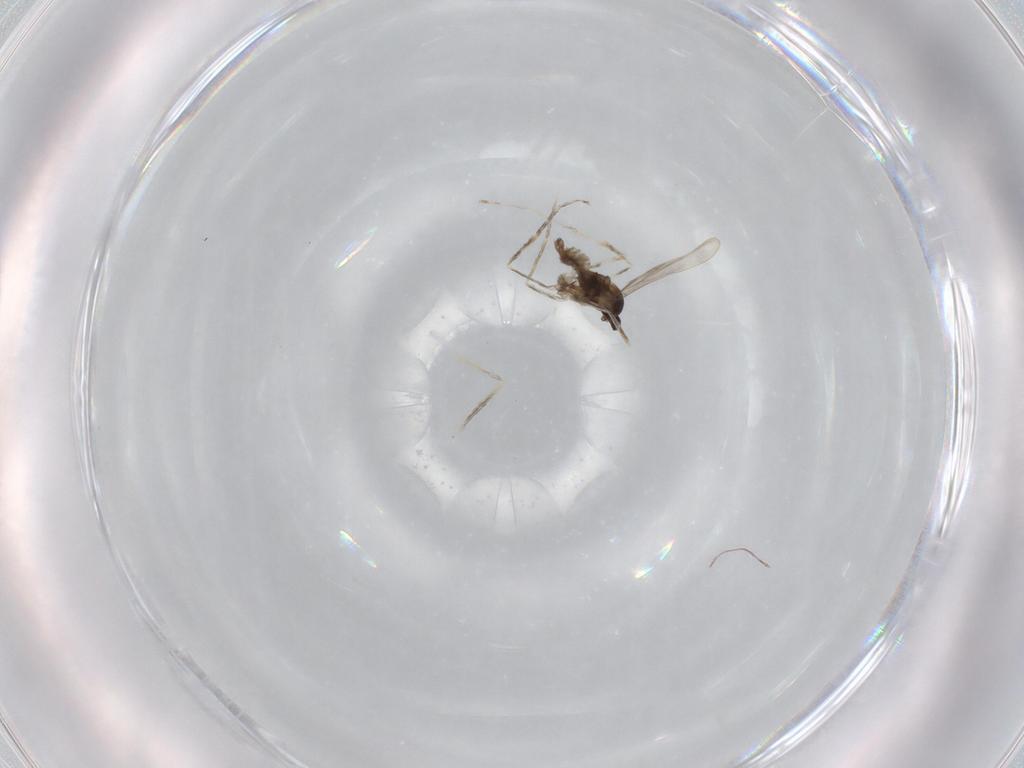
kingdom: Animalia
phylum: Arthropoda
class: Insecta
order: Diptera
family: Cecidomyiidae
